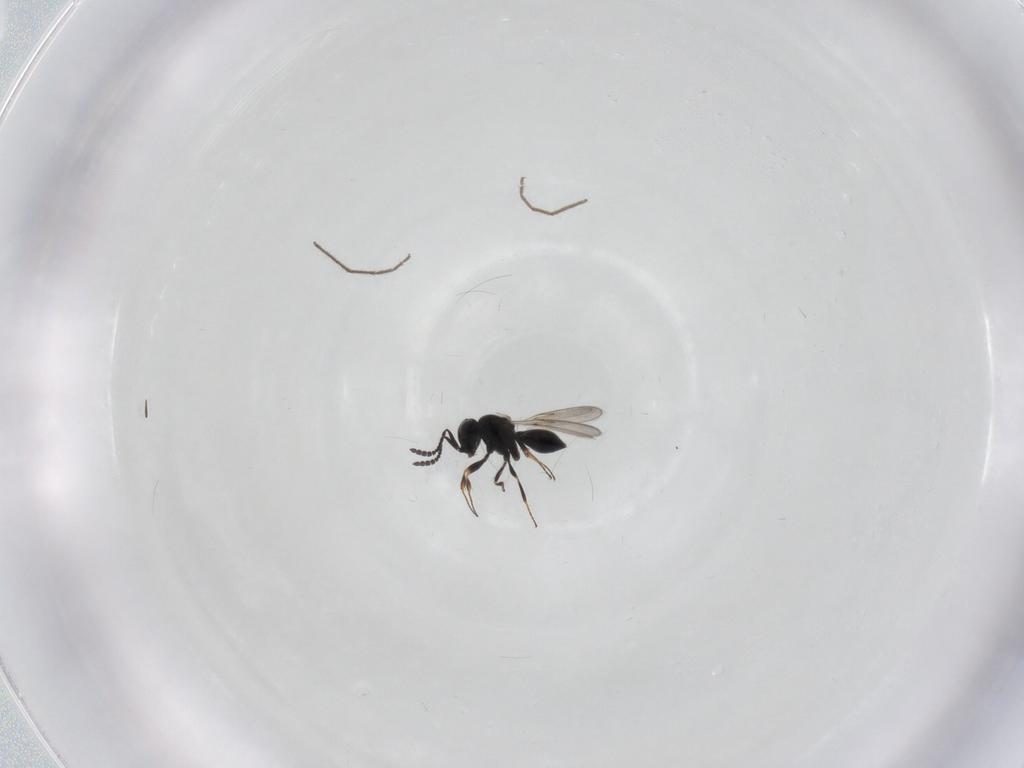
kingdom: Animalia
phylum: Arthropoda
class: Insecta
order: Hymenoptera
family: Scelionidae
